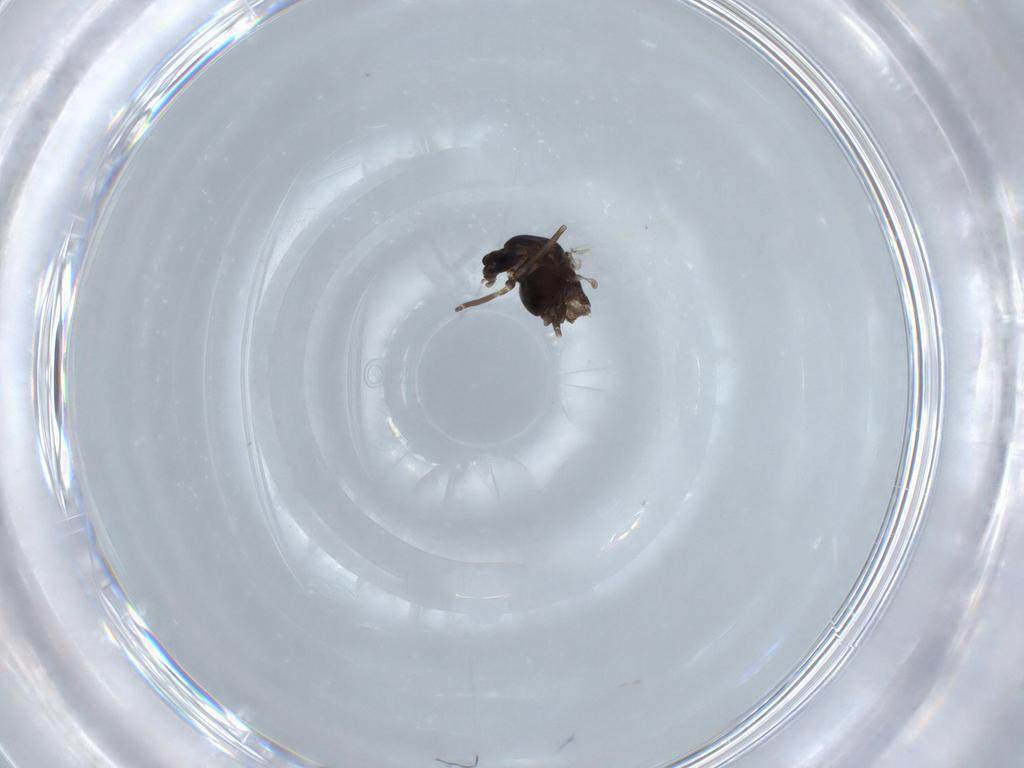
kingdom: Animalia
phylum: Arthropoda
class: Insecta
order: Diptera
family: Chironomidae
